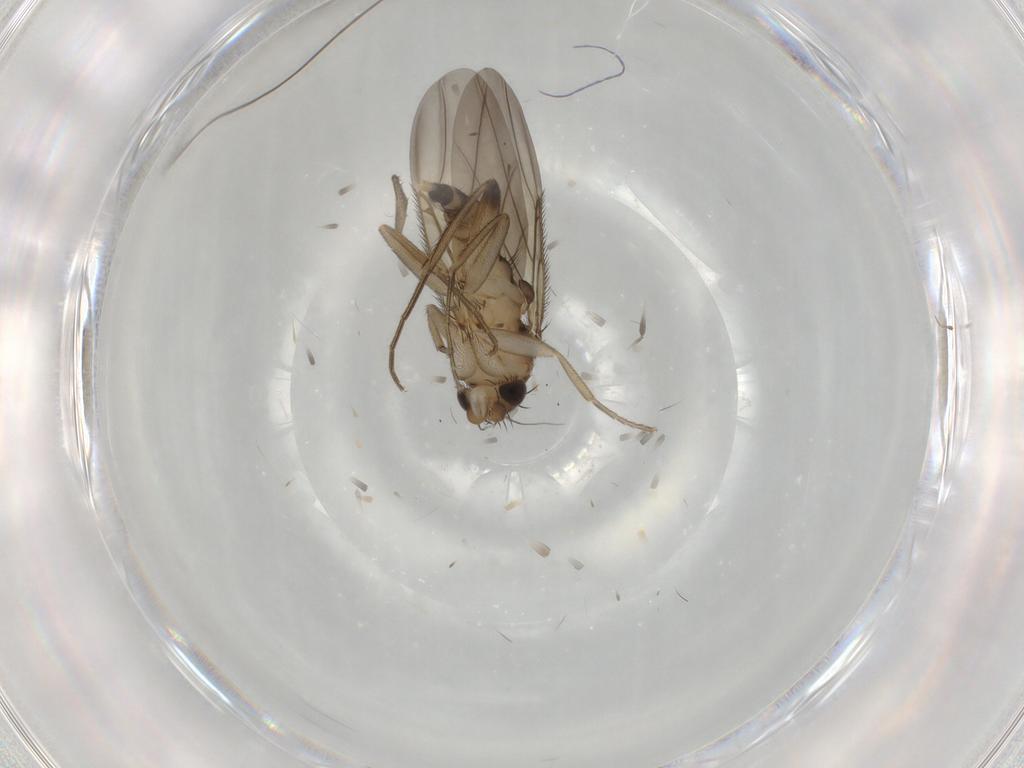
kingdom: Animalia
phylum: Arthropoda
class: Insecta
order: Diptera
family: Phoridae
